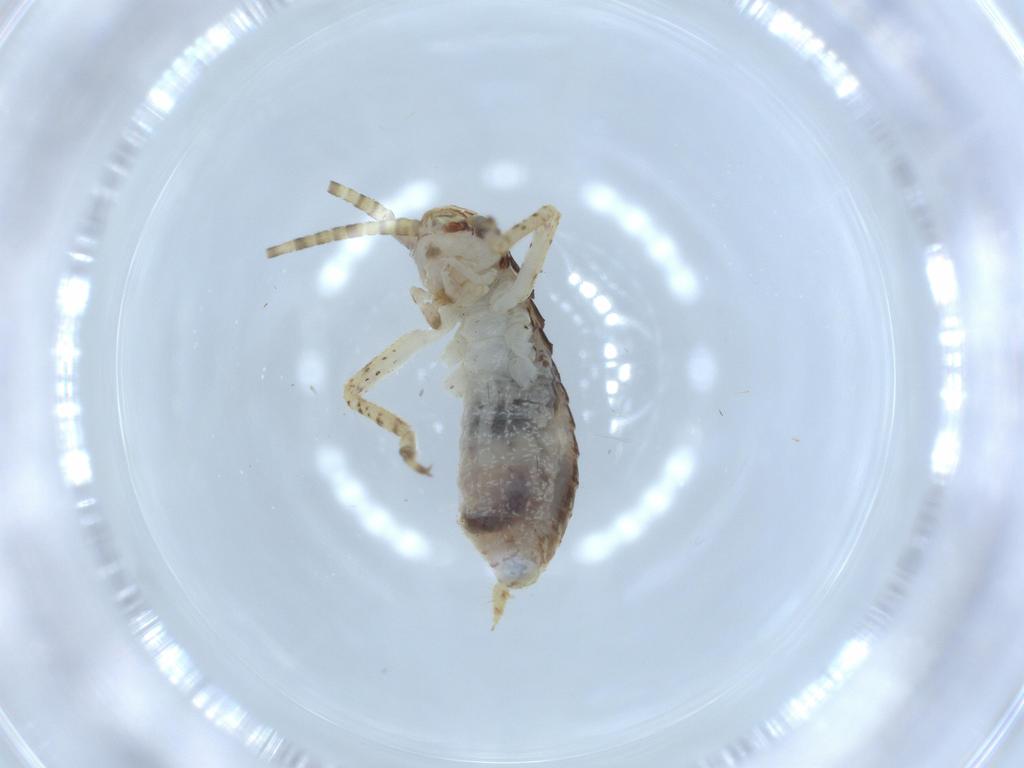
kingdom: Animalia
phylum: Arthropoda
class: Insecta
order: Orthoptera
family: Gryllidae
